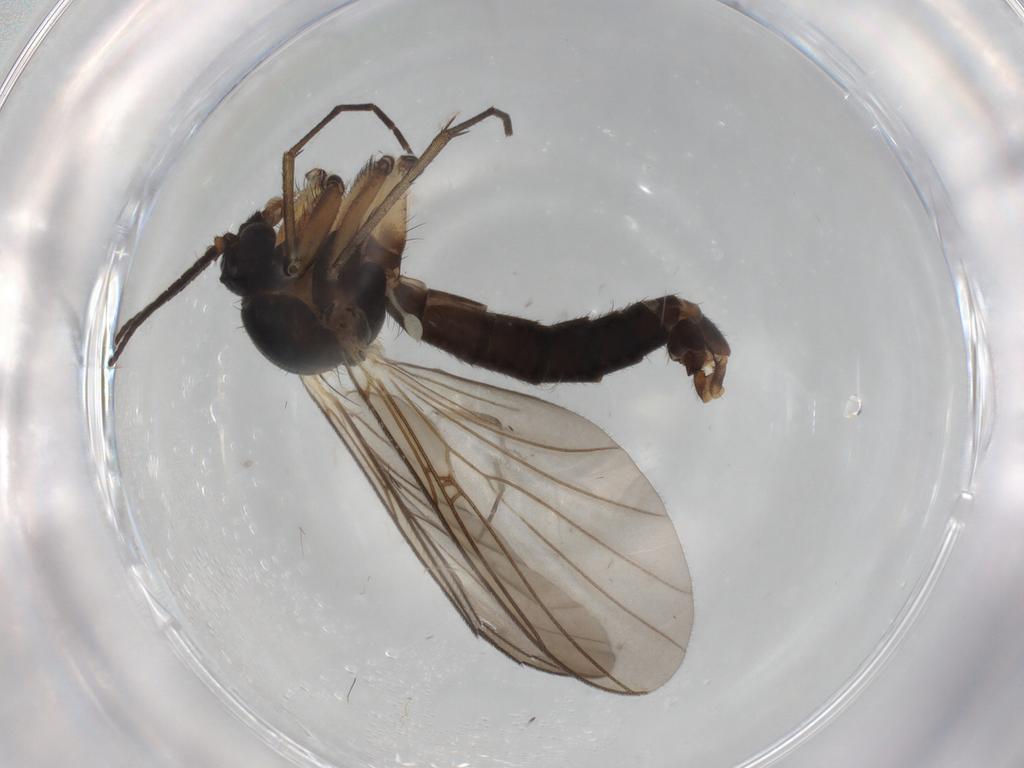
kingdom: Animalia
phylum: Arthropoda
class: Insecta
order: Diptera
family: Mycetophilidae
